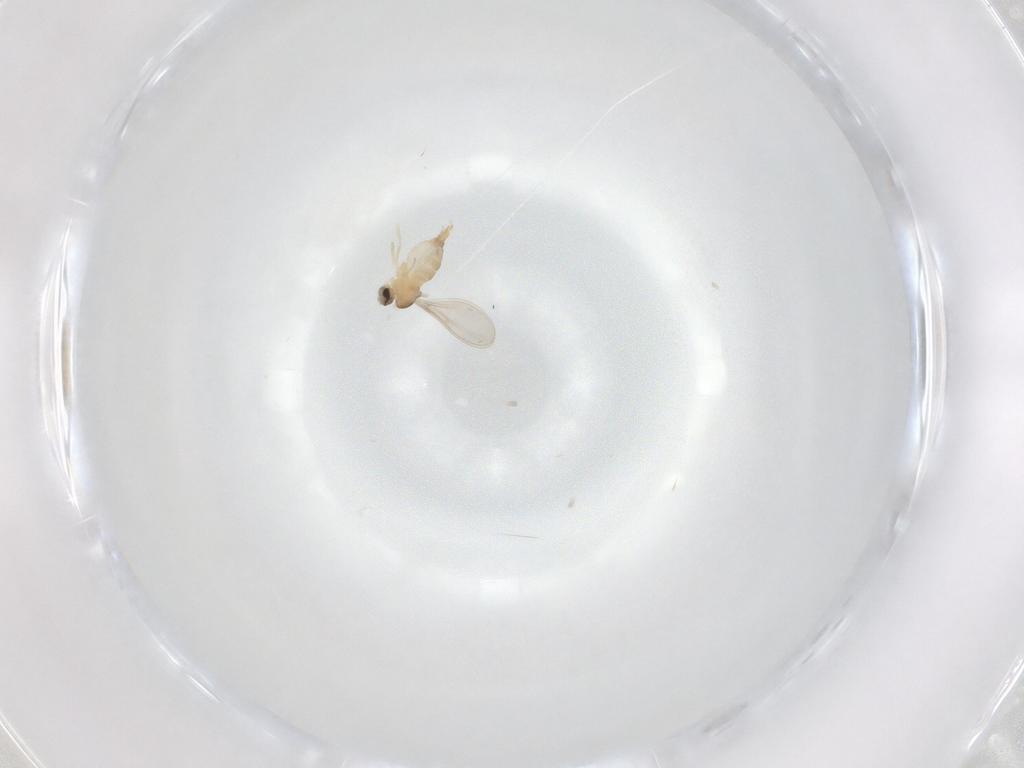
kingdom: Animalia
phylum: Arthropoda
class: Insecta
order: Diptera
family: Cecidomyiidae
